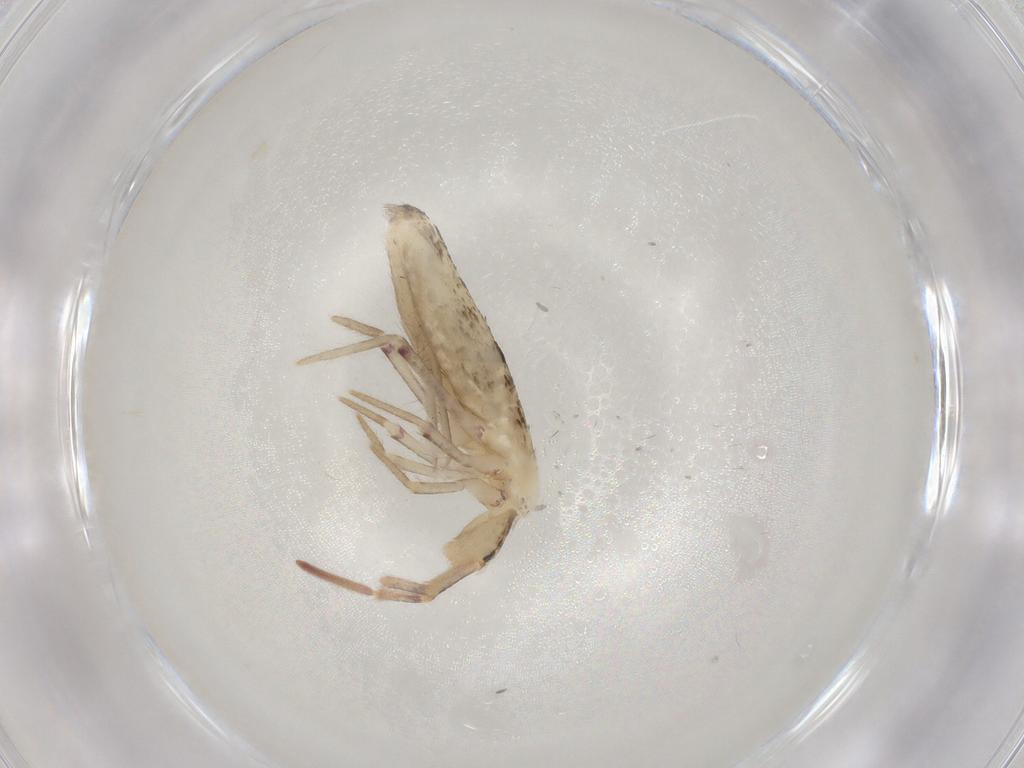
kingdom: Animalia
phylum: Arthropoda
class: Collembola
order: Poduromorpha
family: Hypogastruridae
